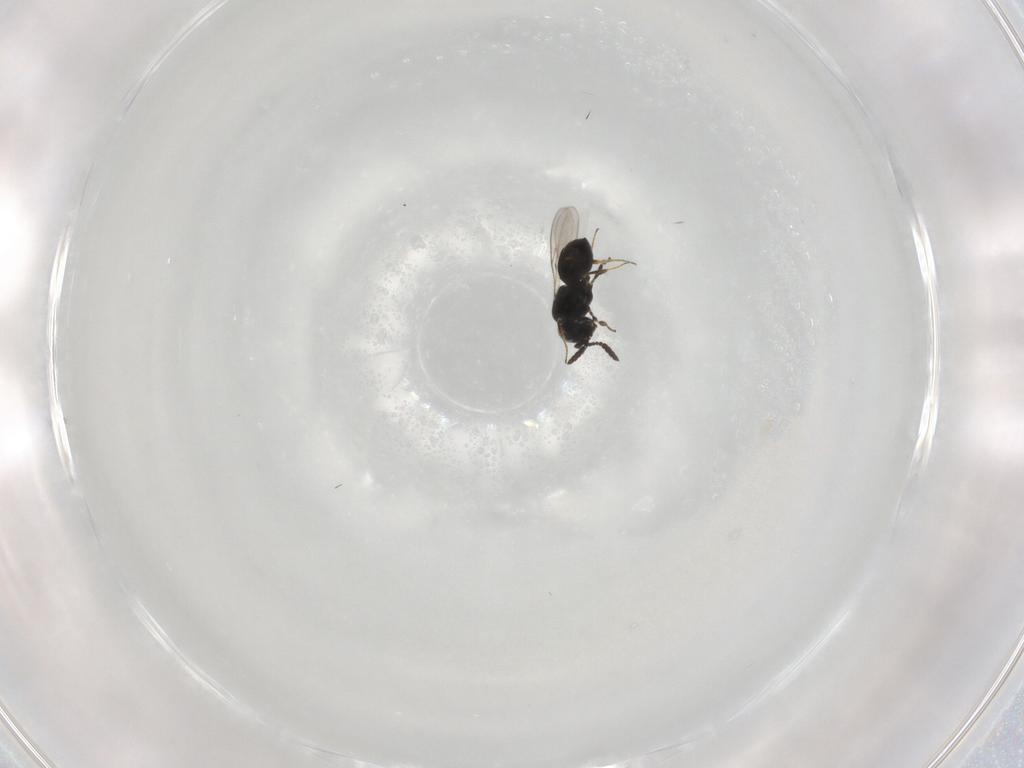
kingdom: Animalia
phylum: Arthropoda
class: Insecta
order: Hymenoptera
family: Scelionidae
